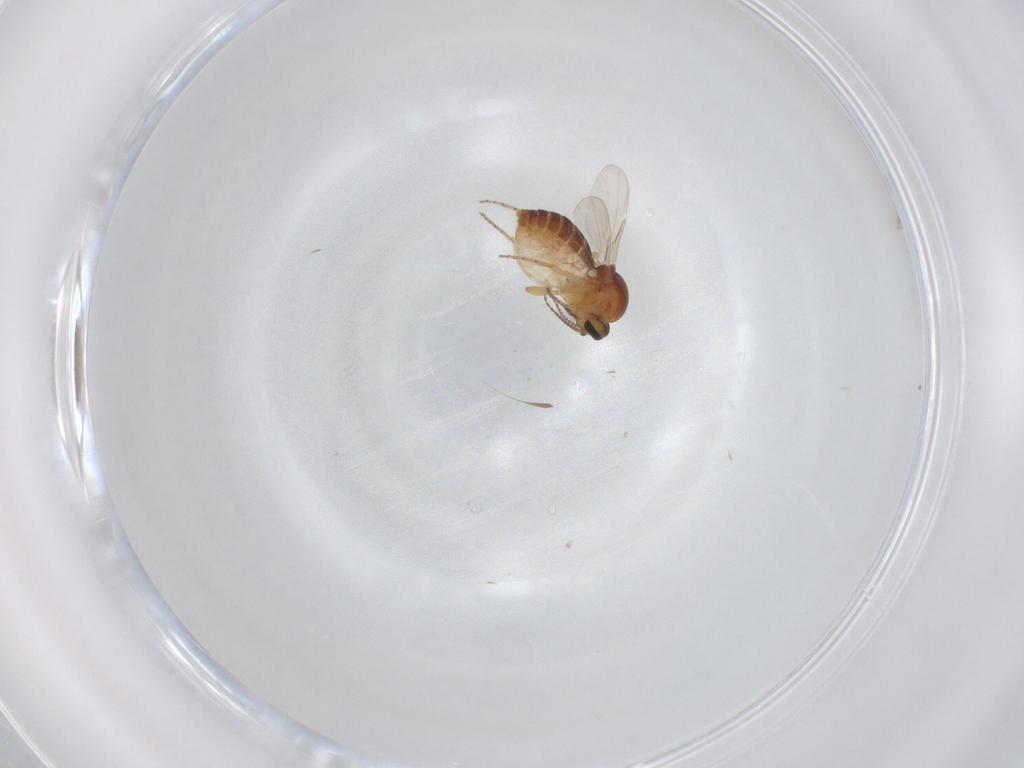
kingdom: Animalia
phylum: Arthropoda
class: Insecta
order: Diptera
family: Ceratopogonidae
